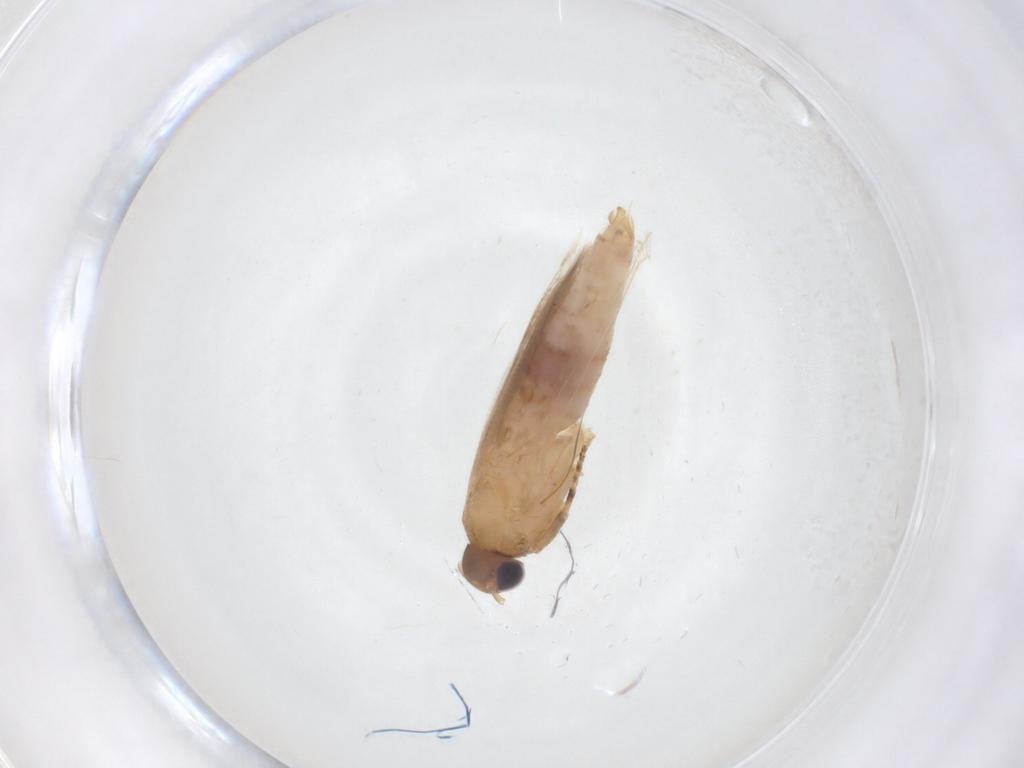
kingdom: Animalia
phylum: Arthropoda
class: Insecta
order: Lepidoptera
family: Gelechiidae
